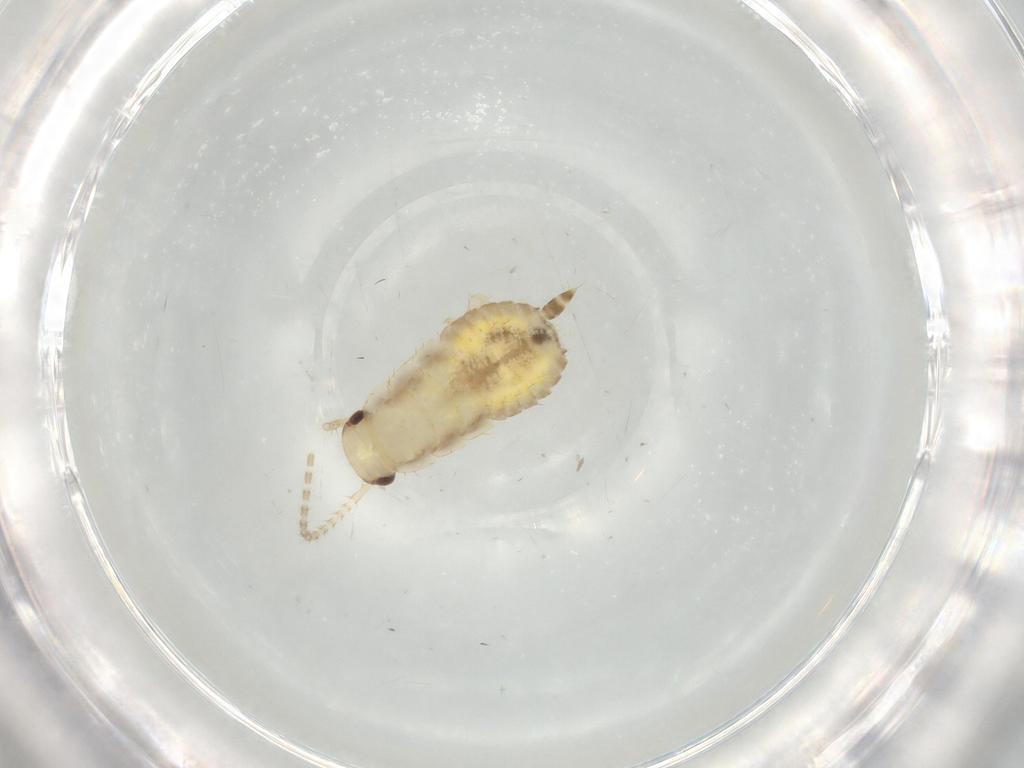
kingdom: Animalia
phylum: Arthropoda
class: Insecta
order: Blattodea
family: Ectobiidae
